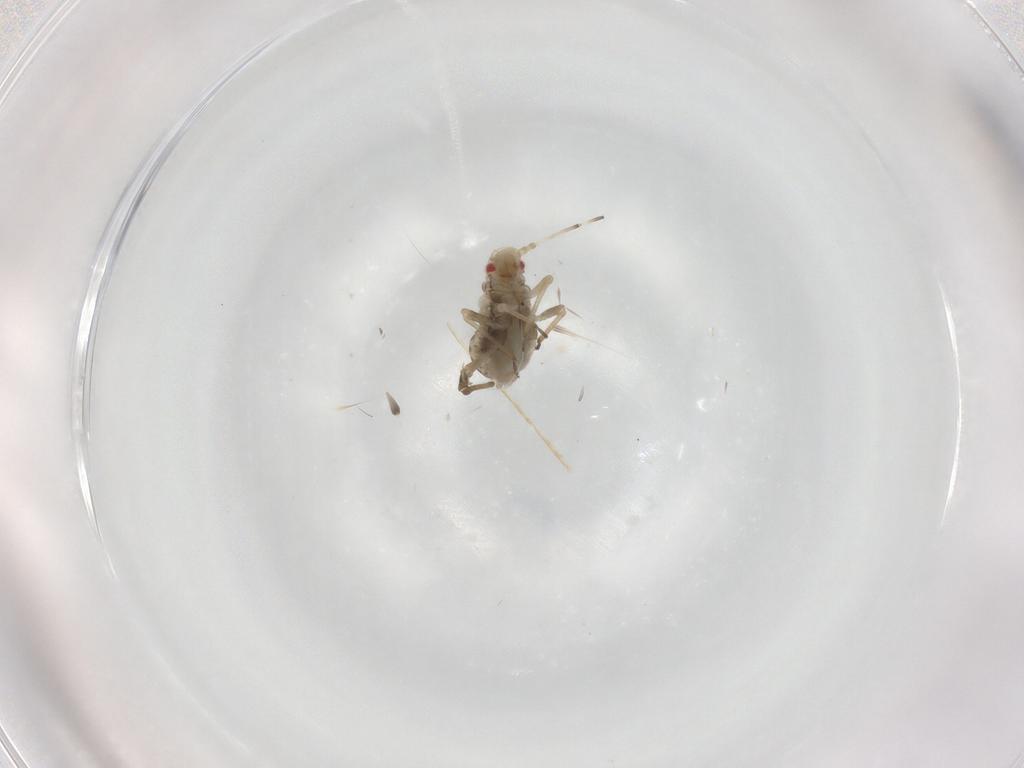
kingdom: Animalia
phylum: Arthropoda
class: Insecta
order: Hemiptera
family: Aphididae
